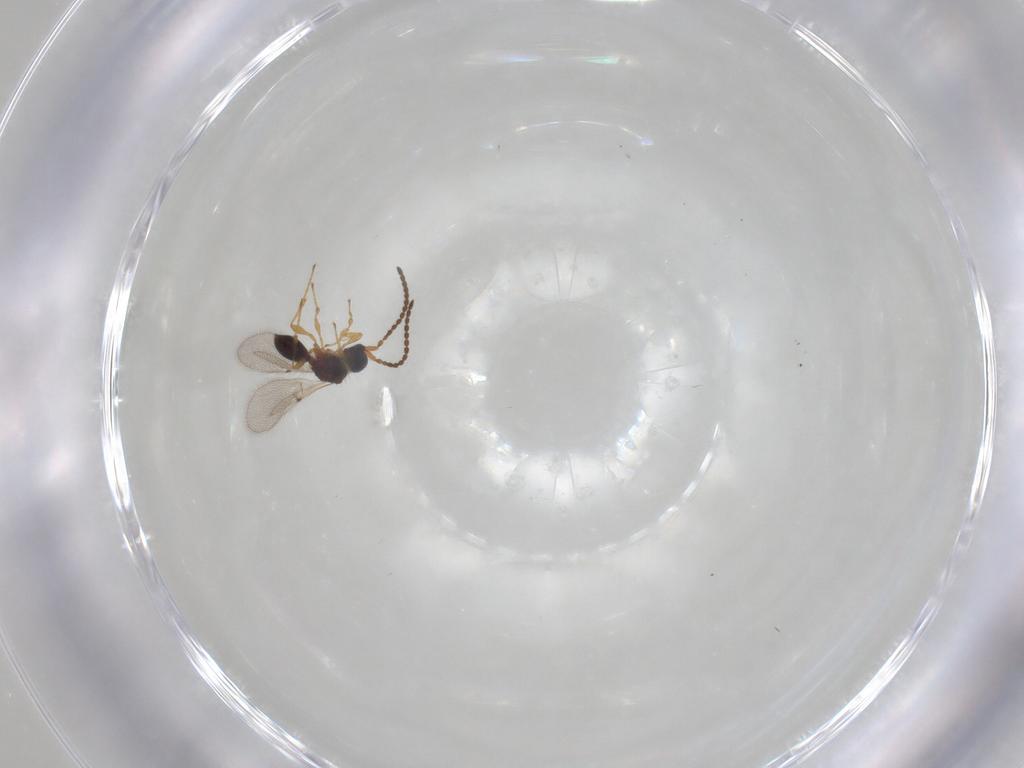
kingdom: Animalia
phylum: Arthropoda
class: Insecta
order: Hymenoptera
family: Diapriidae
